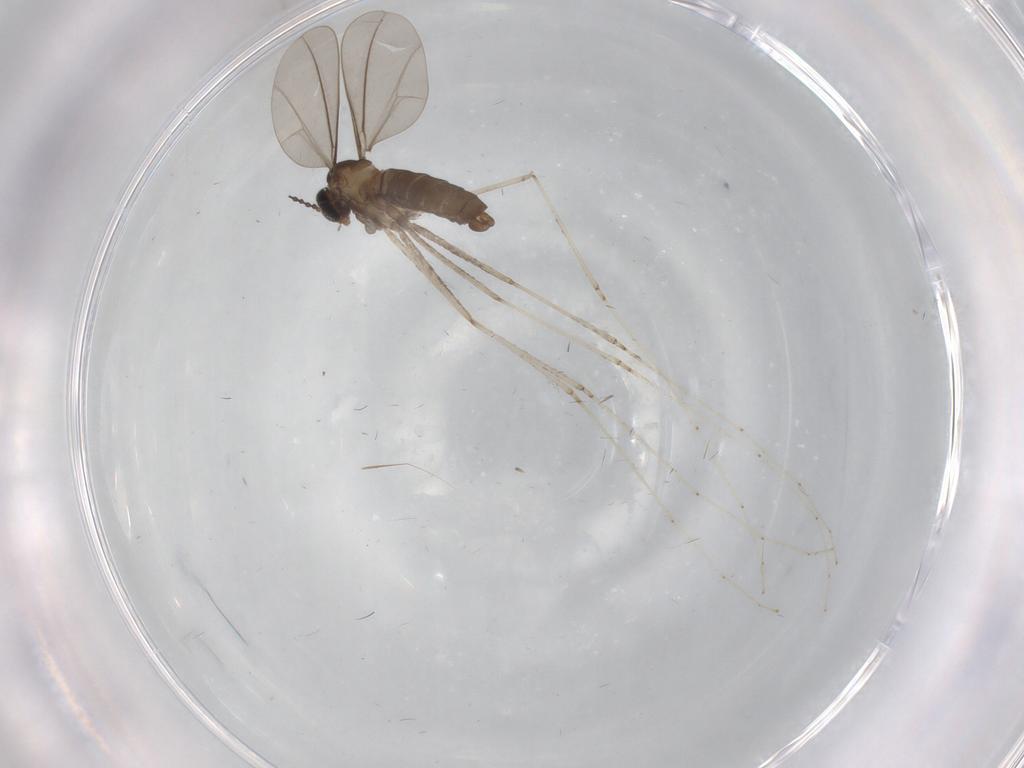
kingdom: Animalia
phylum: Arthropoda
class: Insecta
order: Diptera
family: Cecidomyiidae
